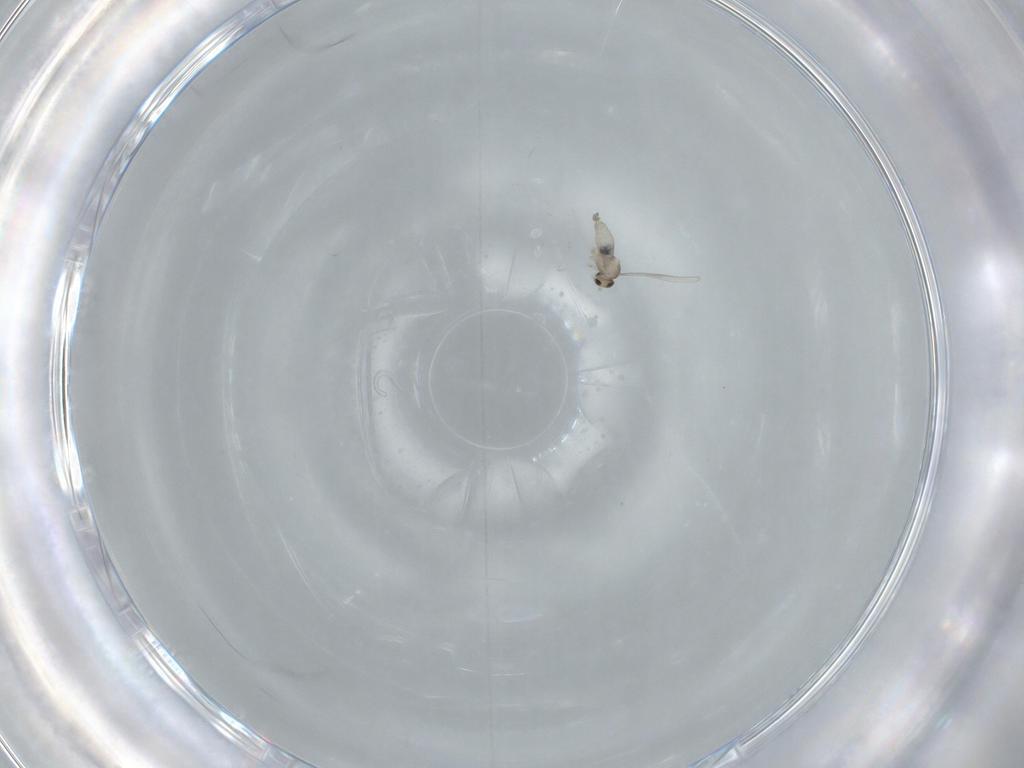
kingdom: Animalia
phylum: Arthropoda
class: Insecta
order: Diptera
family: Cecidomyiidae
